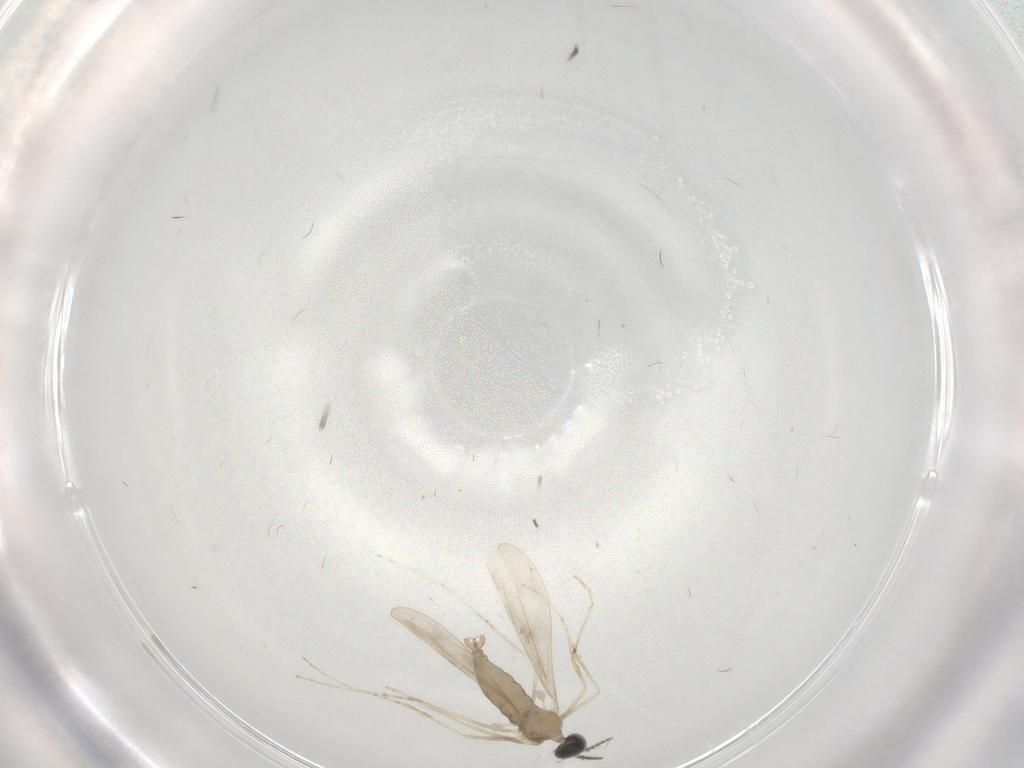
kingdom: Animalia
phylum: Arthropoda
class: Insecta
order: Diptera
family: Cecidomyiidae
